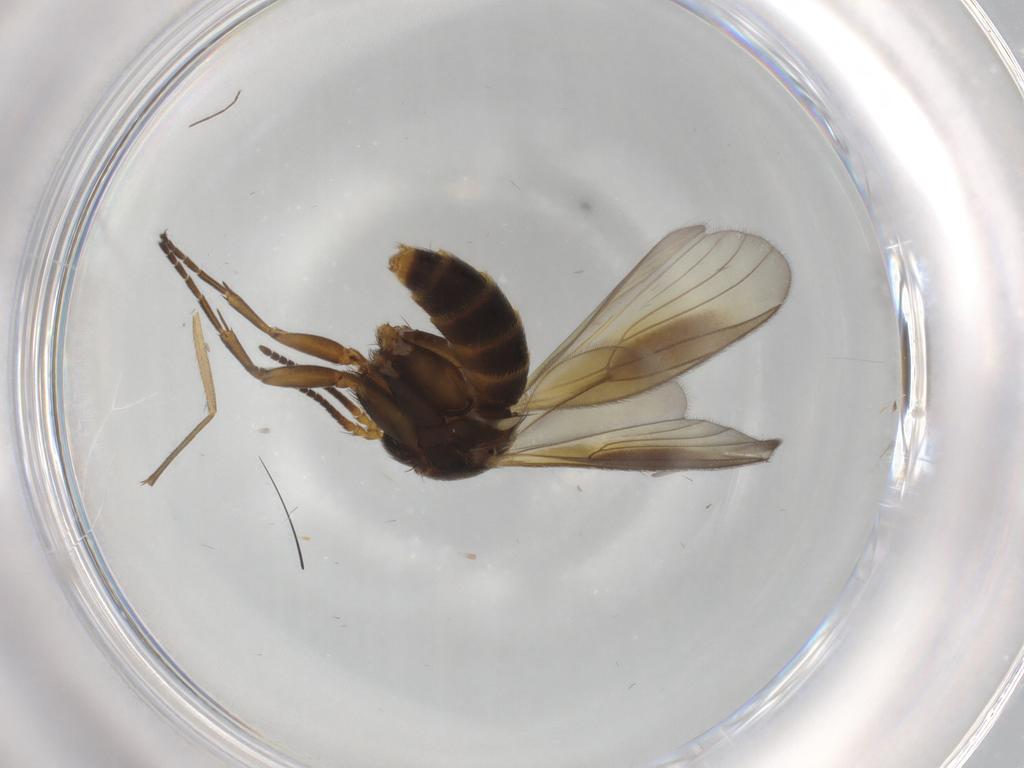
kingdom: Animalia
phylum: Arthropoda
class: Insecta
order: Diptera
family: Sciaridae
